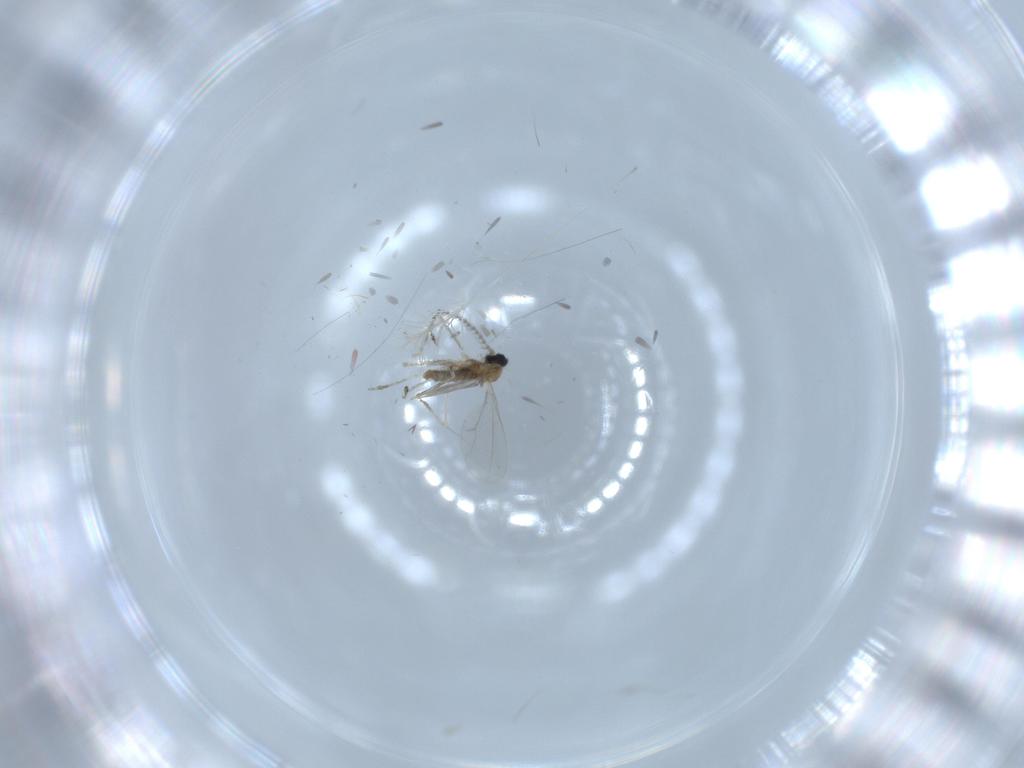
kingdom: Animalia
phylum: Arthropoda
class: Insecta
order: Diptera
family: Cecidomyiidae
